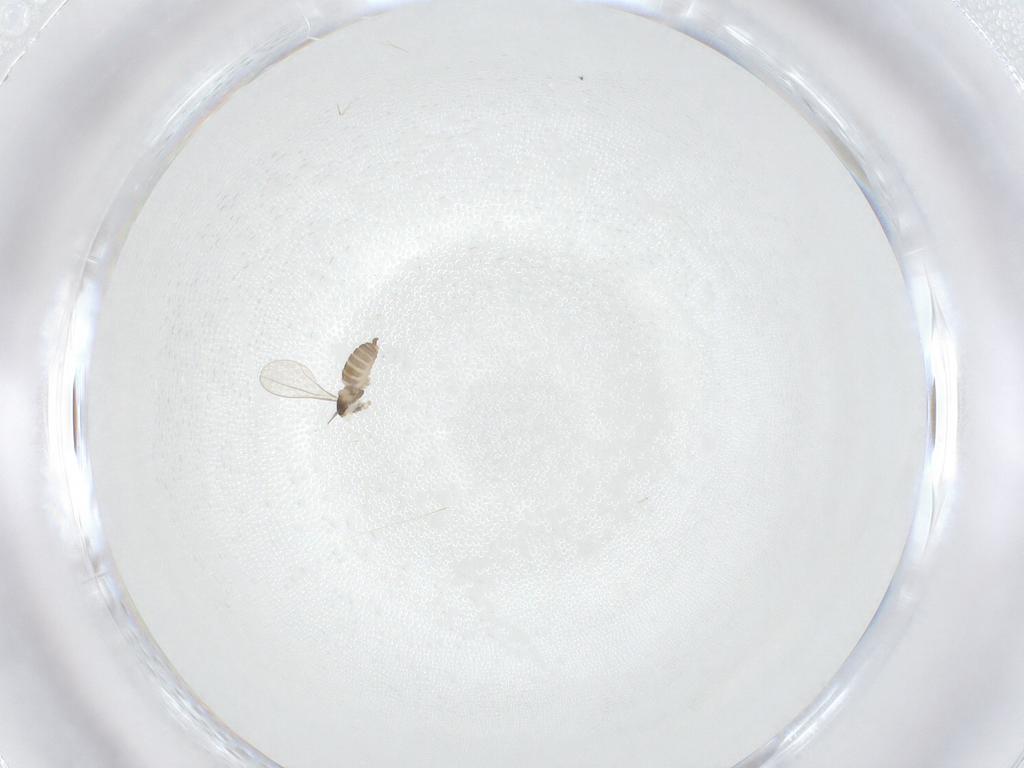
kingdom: Animalia
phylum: Arthropoda
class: Insecta
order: Diptera
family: Cecidomyiidae
